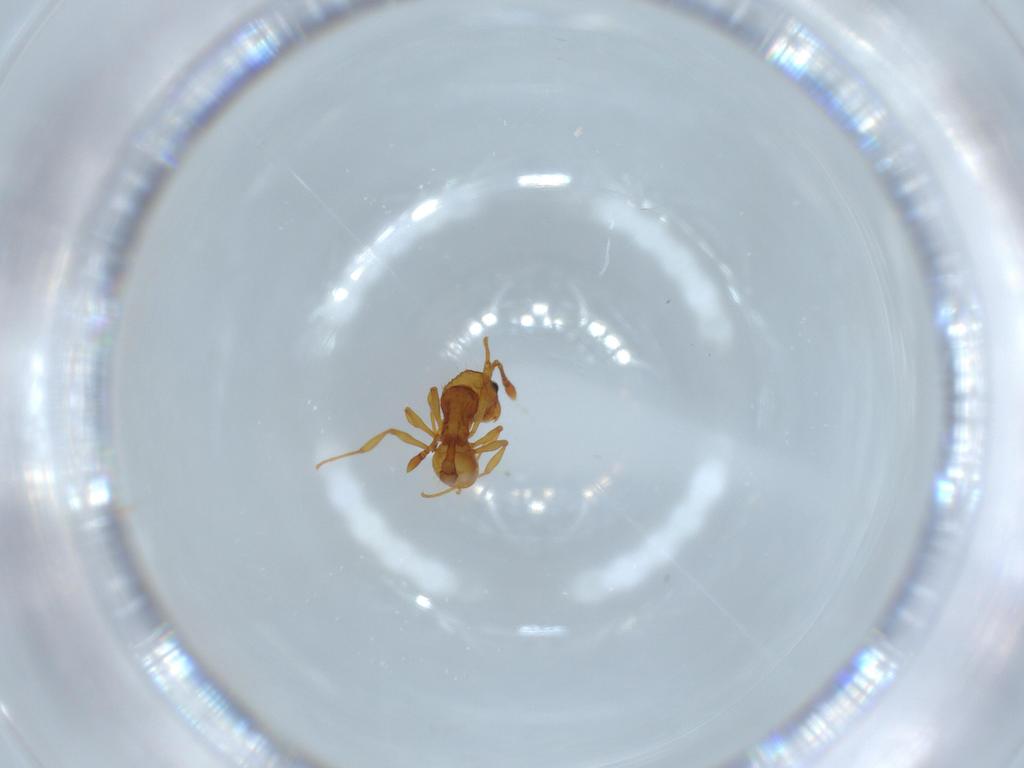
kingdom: Animalia
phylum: Arthropoda
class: Insecta
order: Hymenoptera
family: Formicidae
